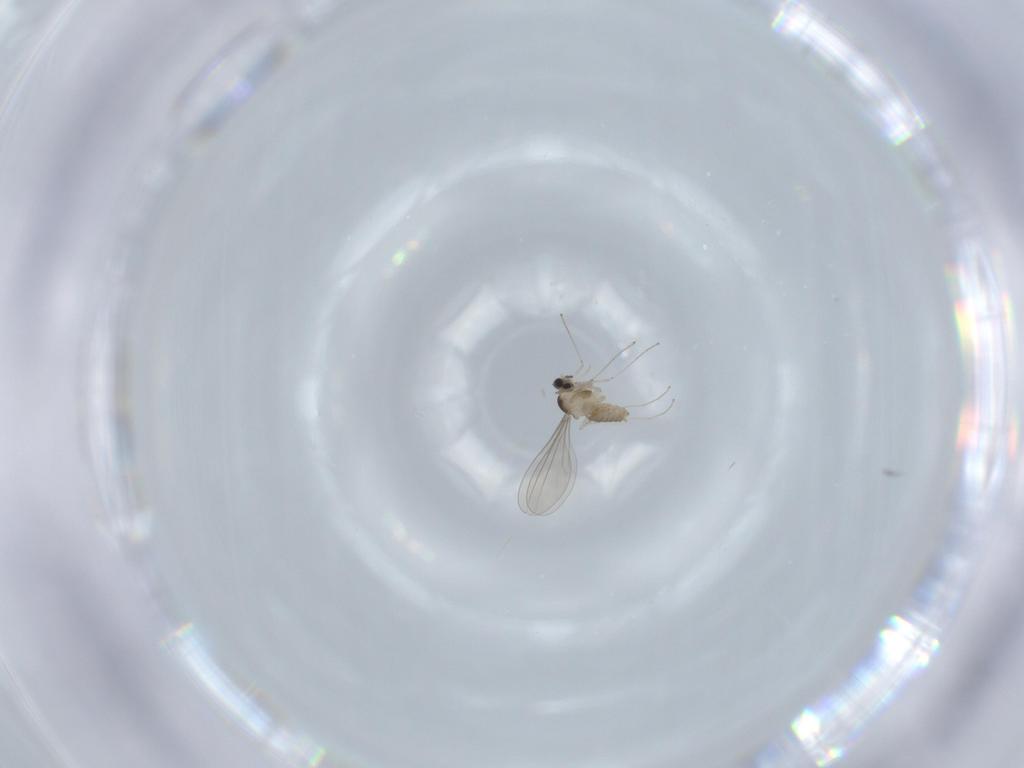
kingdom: Animalia
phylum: Arthropoda
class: Insecta
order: Diptera
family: Cecidomyiidae
